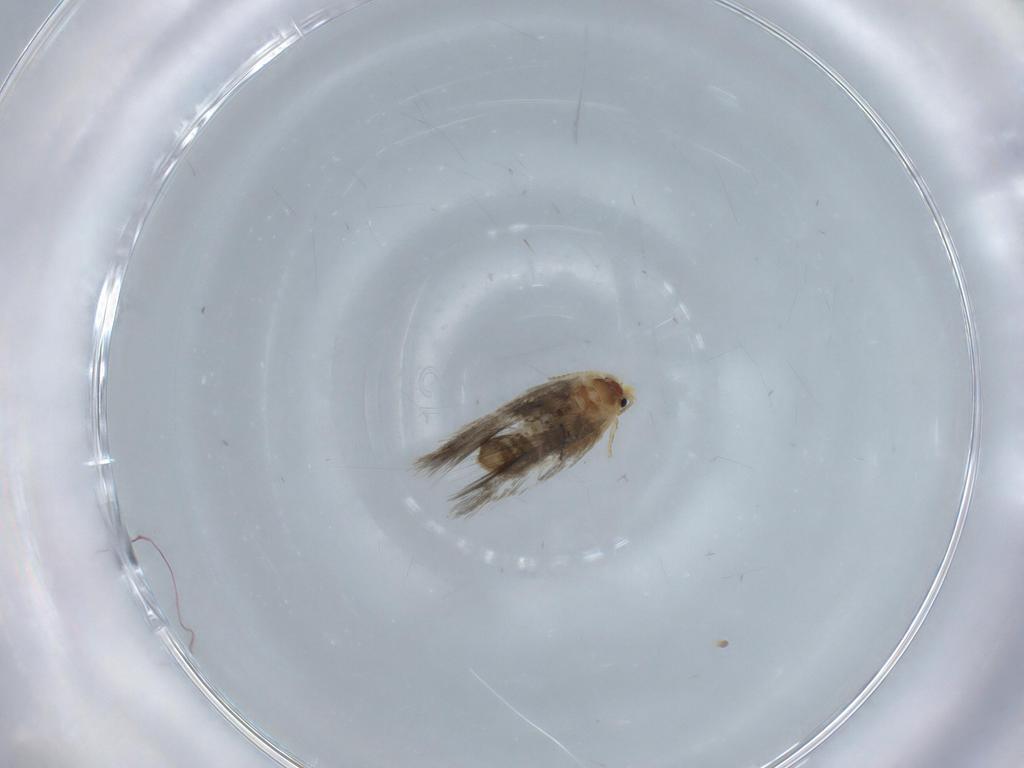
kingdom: Animalia
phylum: Arthropoda
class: Insecta
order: Lepidoptera
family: Nepticulidae
